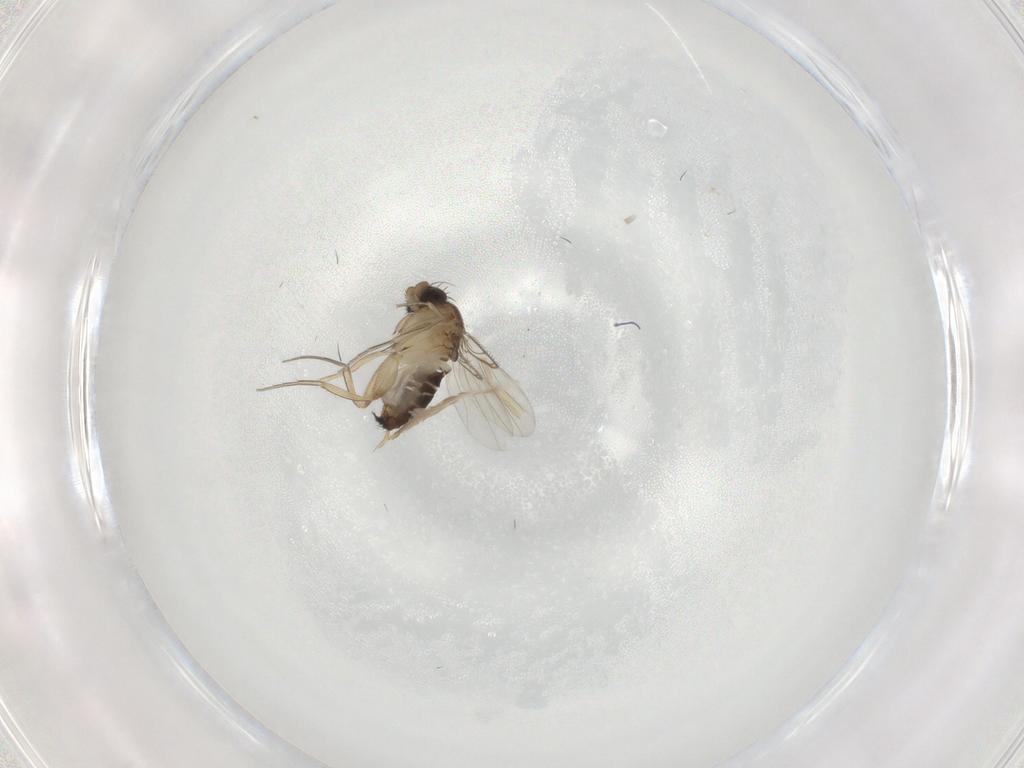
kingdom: Animalia
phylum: Arthropoda
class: Insecta
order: Diptera
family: Phoridae
